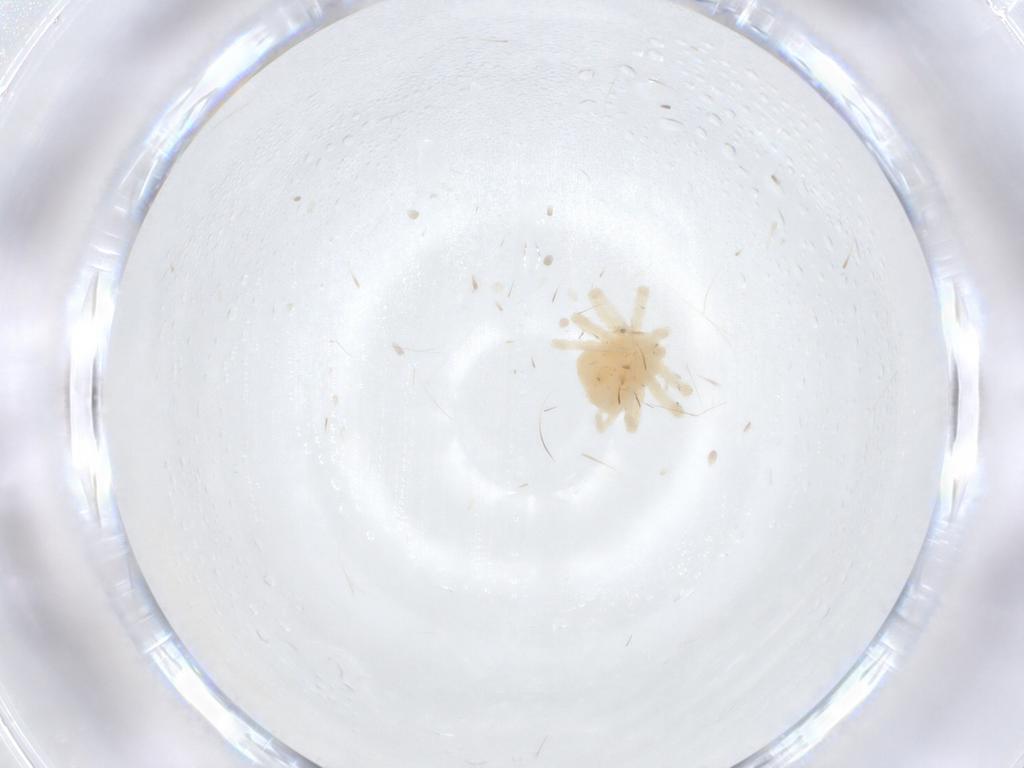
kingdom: Animalia
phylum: Arthropoda
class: Arachnida
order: Trombidiformes
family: Anystidae
